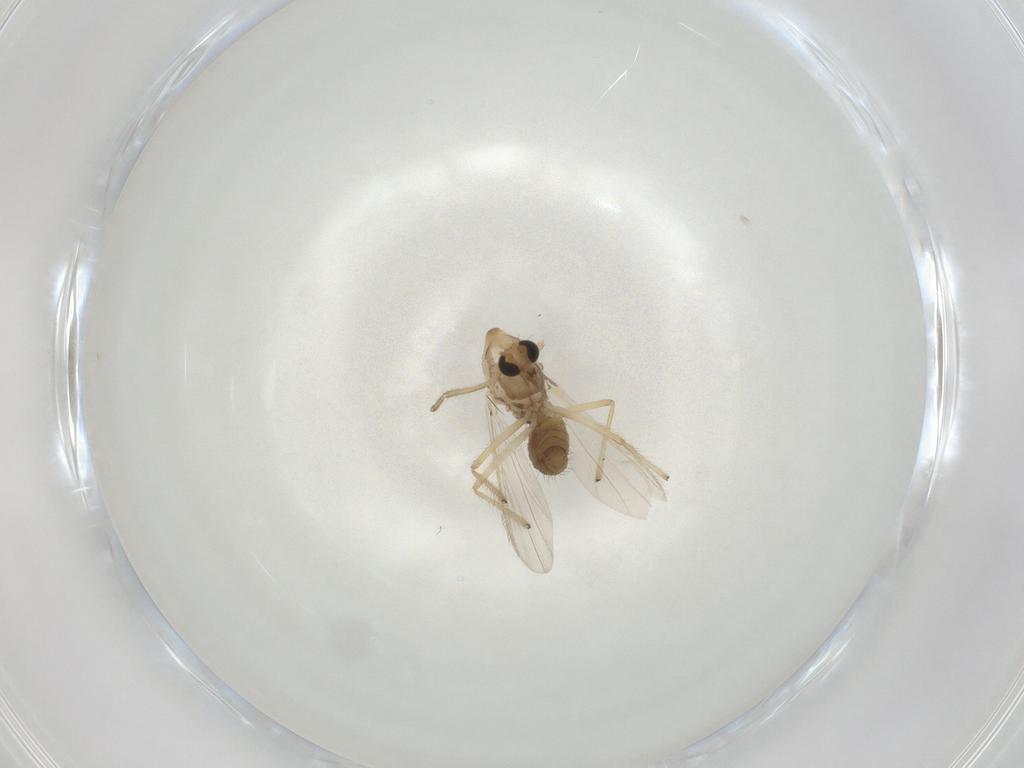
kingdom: Animalia
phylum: Arthropoda
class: Insecta
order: Diptera
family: Chironomidae
